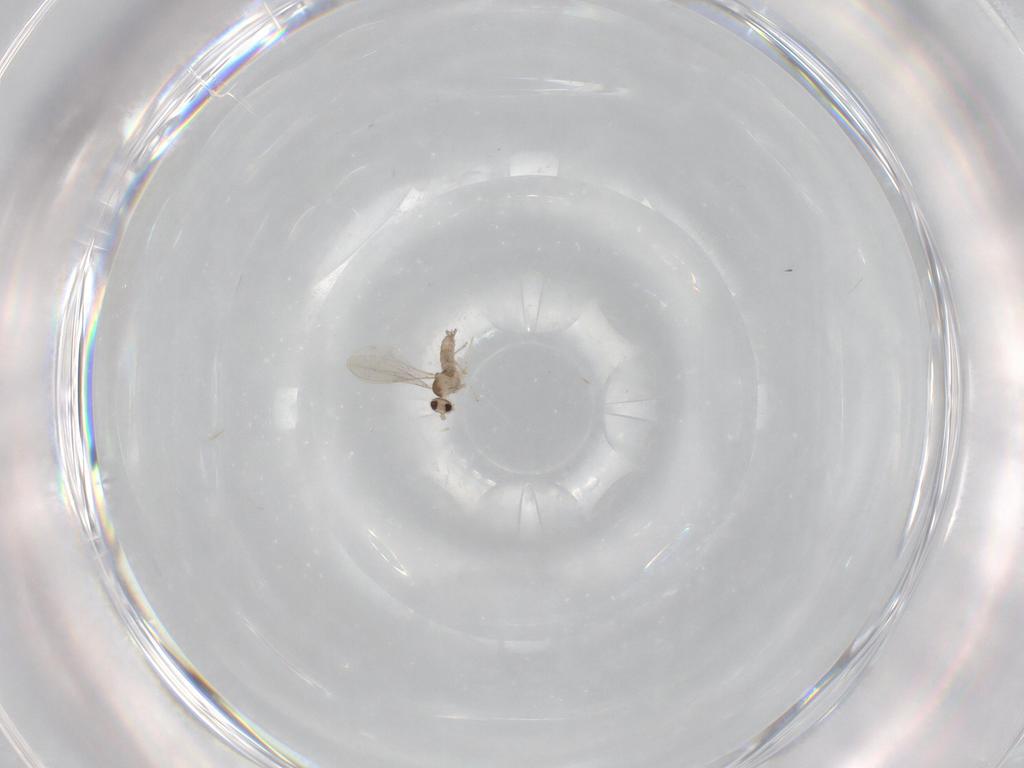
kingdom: Animalia
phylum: Arthropoda
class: Insecta
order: Diptera
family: Cecidomyiidae
